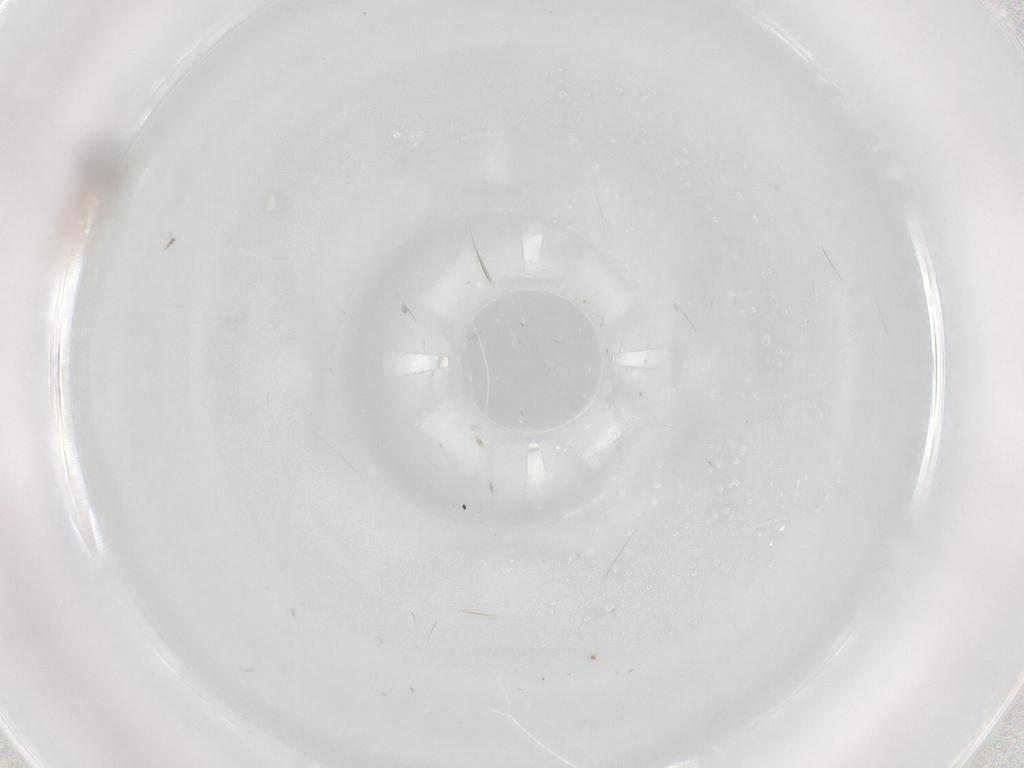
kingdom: Animalia
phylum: Arthropoda
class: Insecta
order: Diptera
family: Cecidomyiidae
